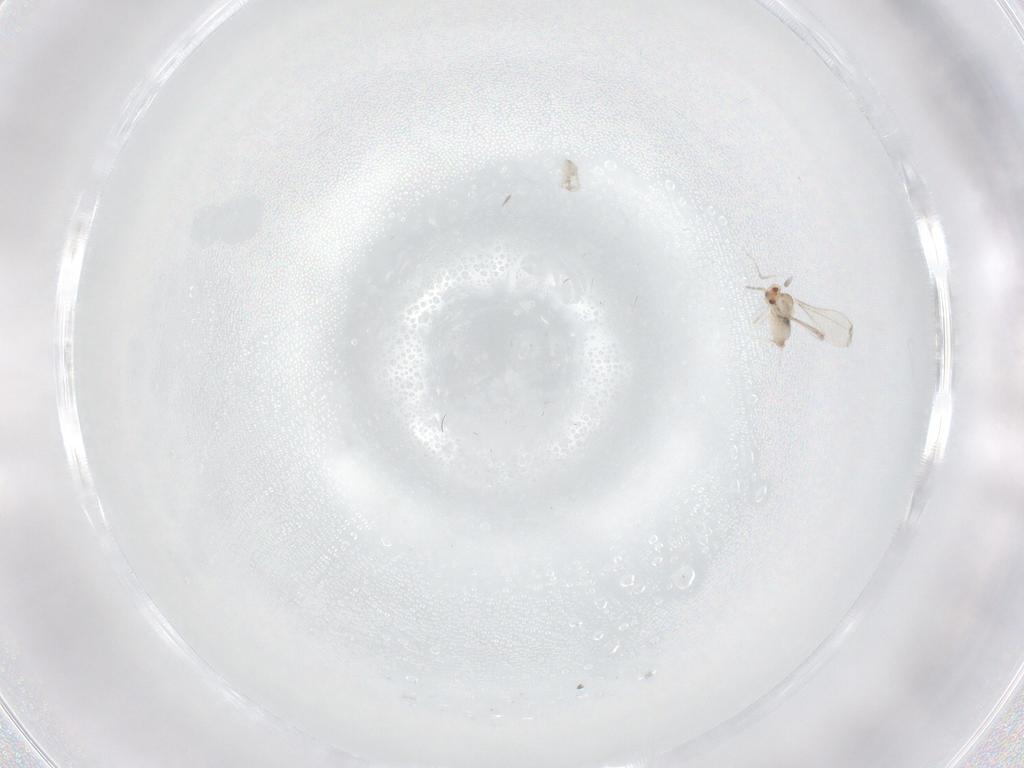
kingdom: Animalia
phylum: Arthropoda
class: Insecta
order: Diptera
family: Cecidomyiidae
